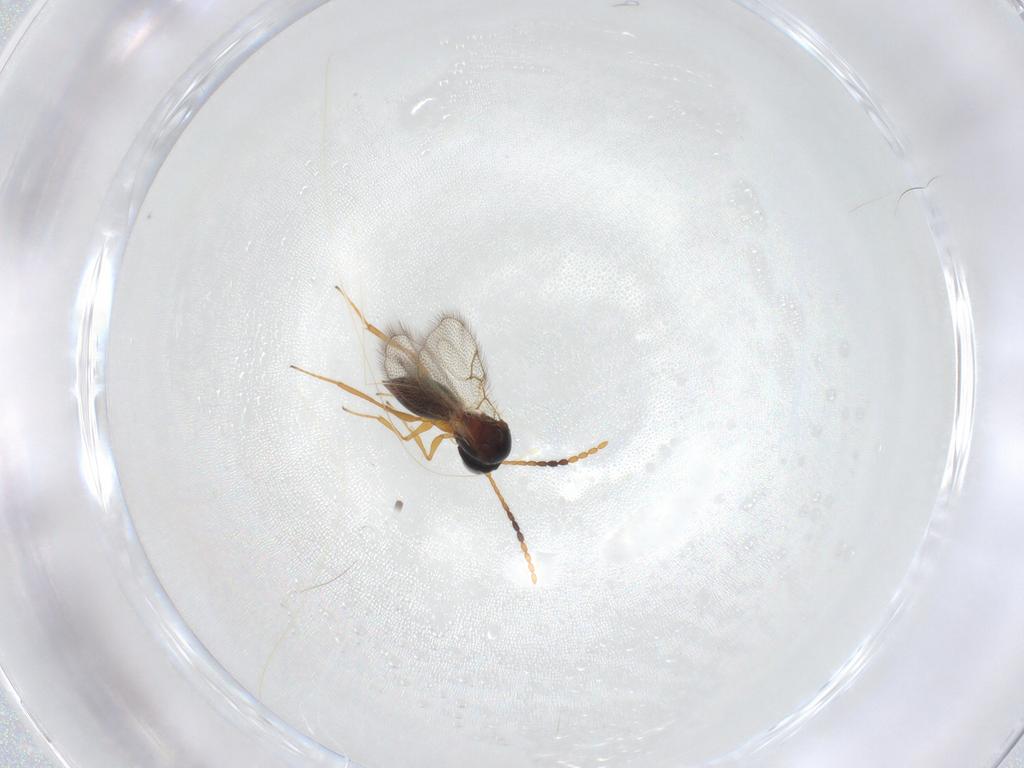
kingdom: Animalia
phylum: Arthropoda
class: Insecta
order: Hymenoptera
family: Figitidae
